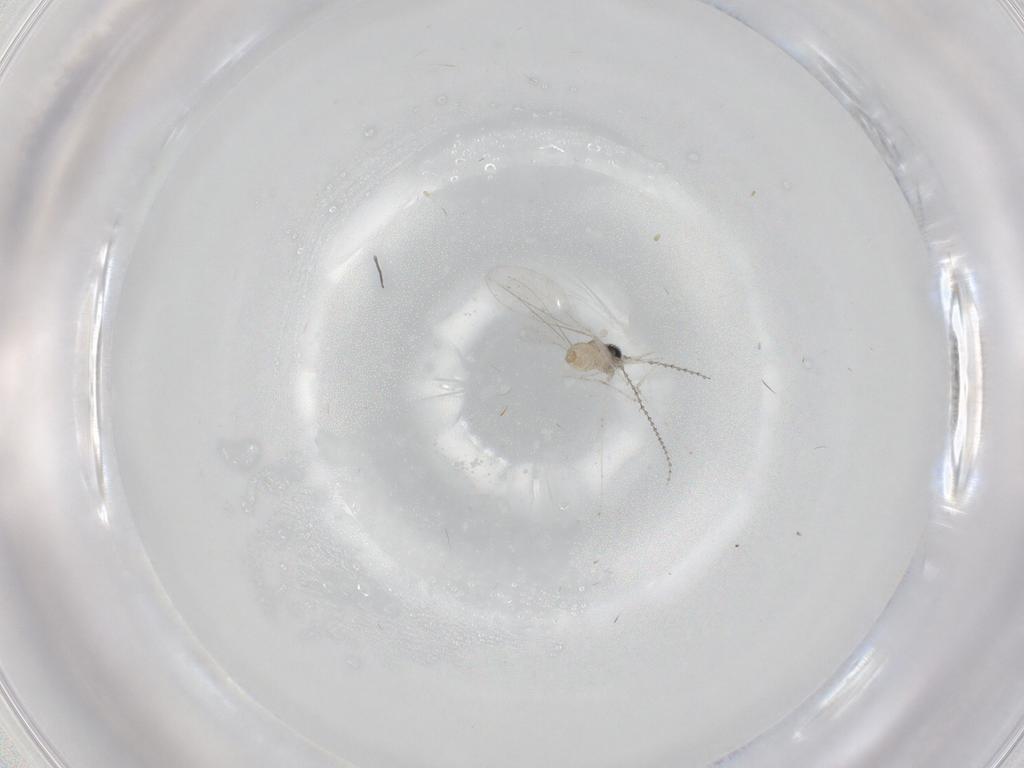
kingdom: Animalia
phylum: Arthropoda
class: Insecta
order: Diptera
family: Cecidomyiidae
